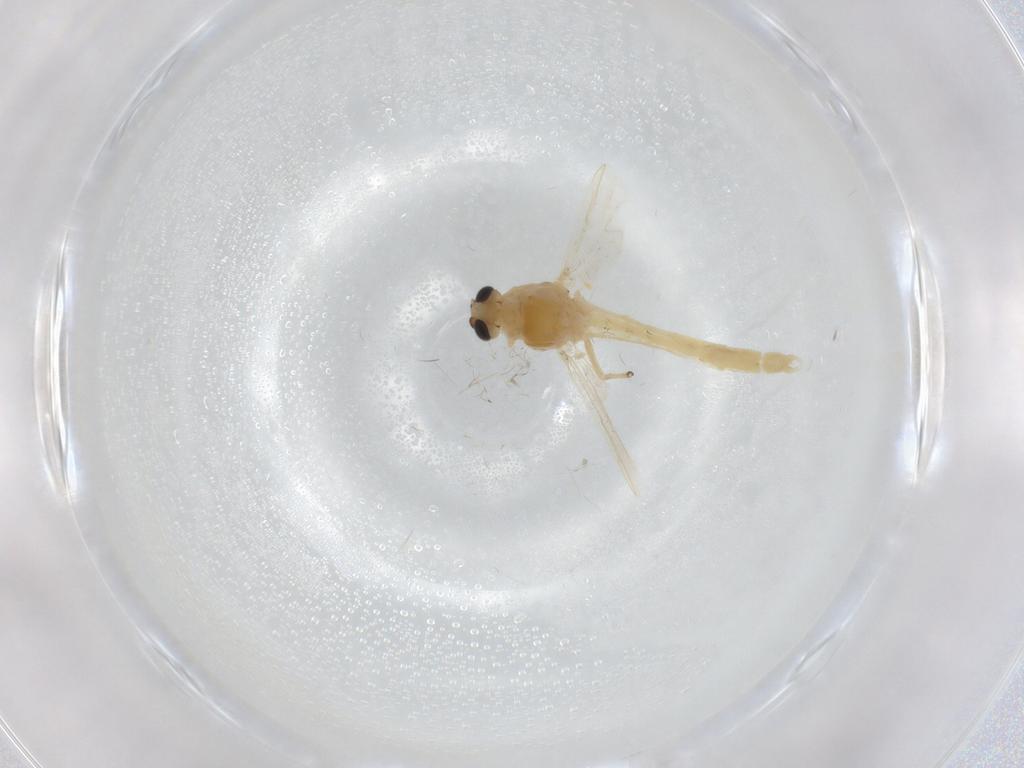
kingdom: Animalia
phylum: Arthropoda
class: Insecta
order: Diptera
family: Chironomidae
